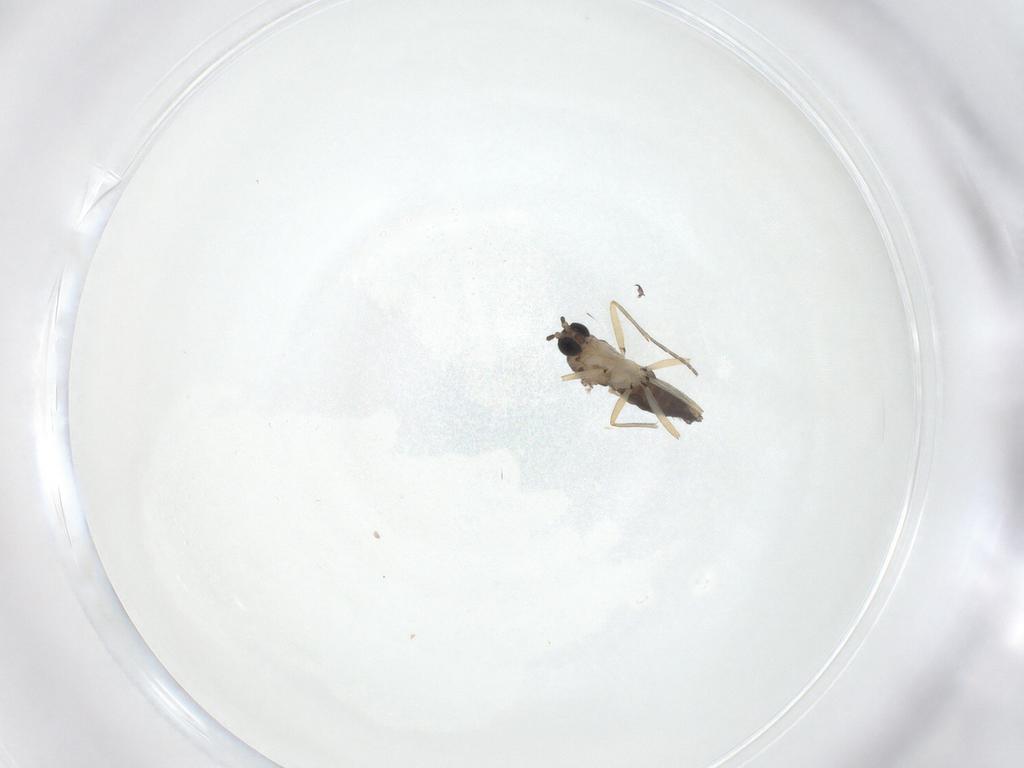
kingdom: Animalia
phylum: Arthropoda
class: Insecta
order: Diptera
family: Sciaridae
